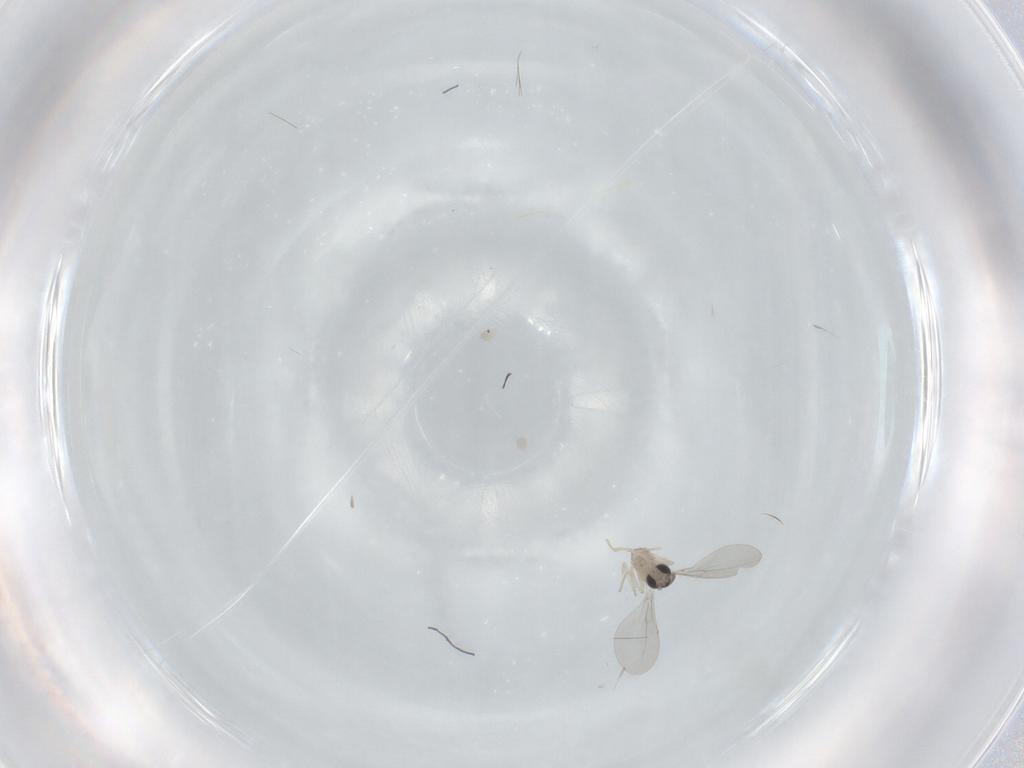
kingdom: Animalia
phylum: Arthropoda
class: Insecta
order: Diptera
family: Cecidomyiidae
